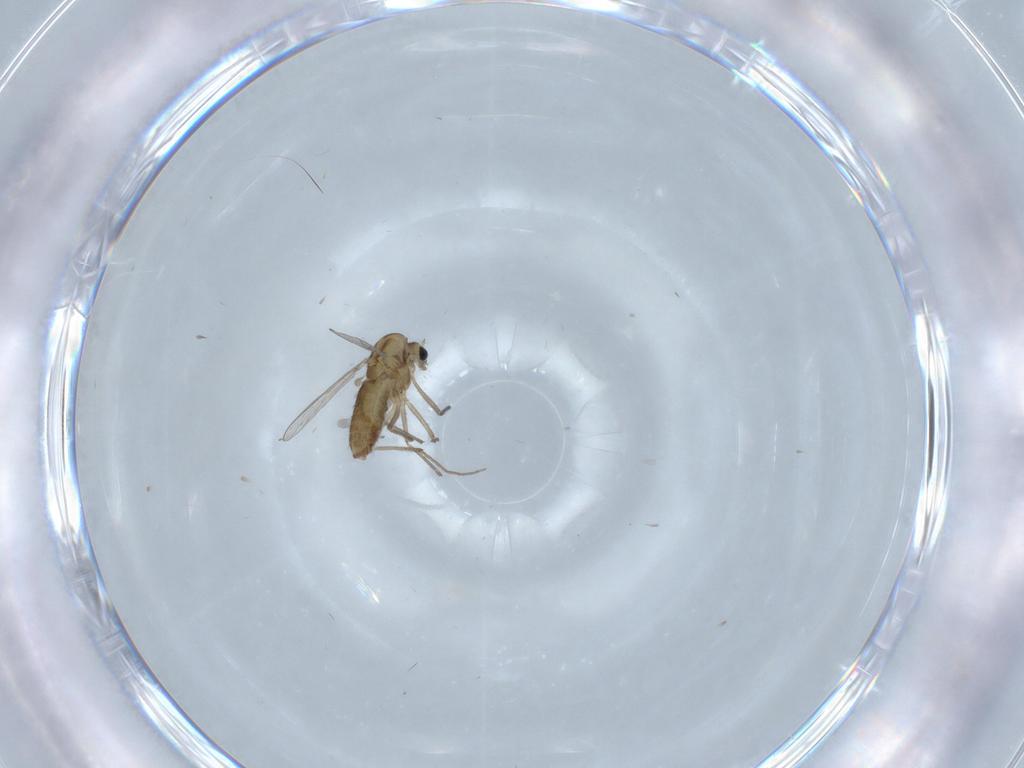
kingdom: Animalia
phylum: Arthropoda
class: Insecta
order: Diptera
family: Chironomidae
